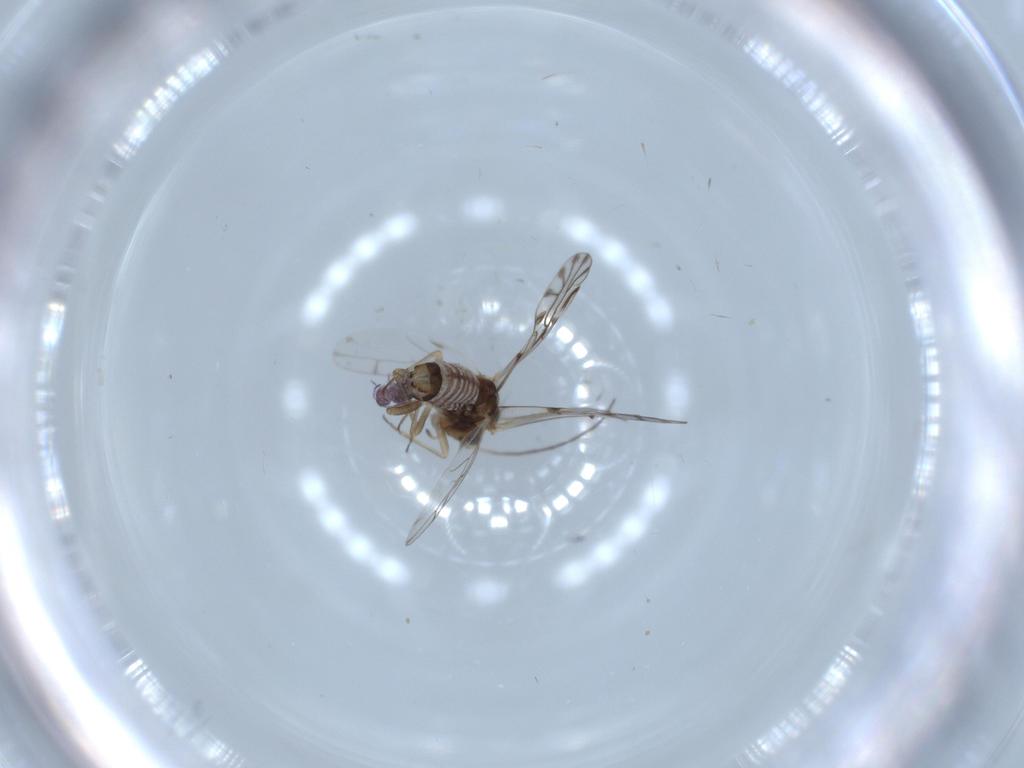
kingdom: Animalia
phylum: Arthropoda
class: Insecta
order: Psocodea
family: Lachesillidae
